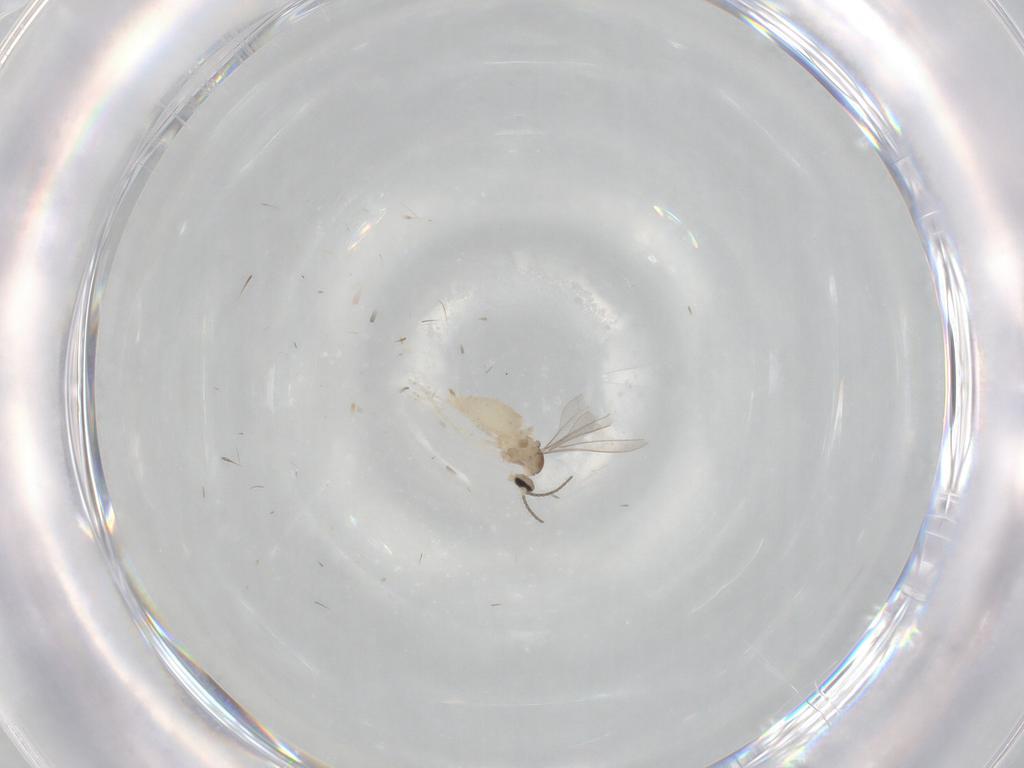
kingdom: Animalia
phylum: Arthropoda
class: Insecta
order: Diptera
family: Cecidomyiidae
